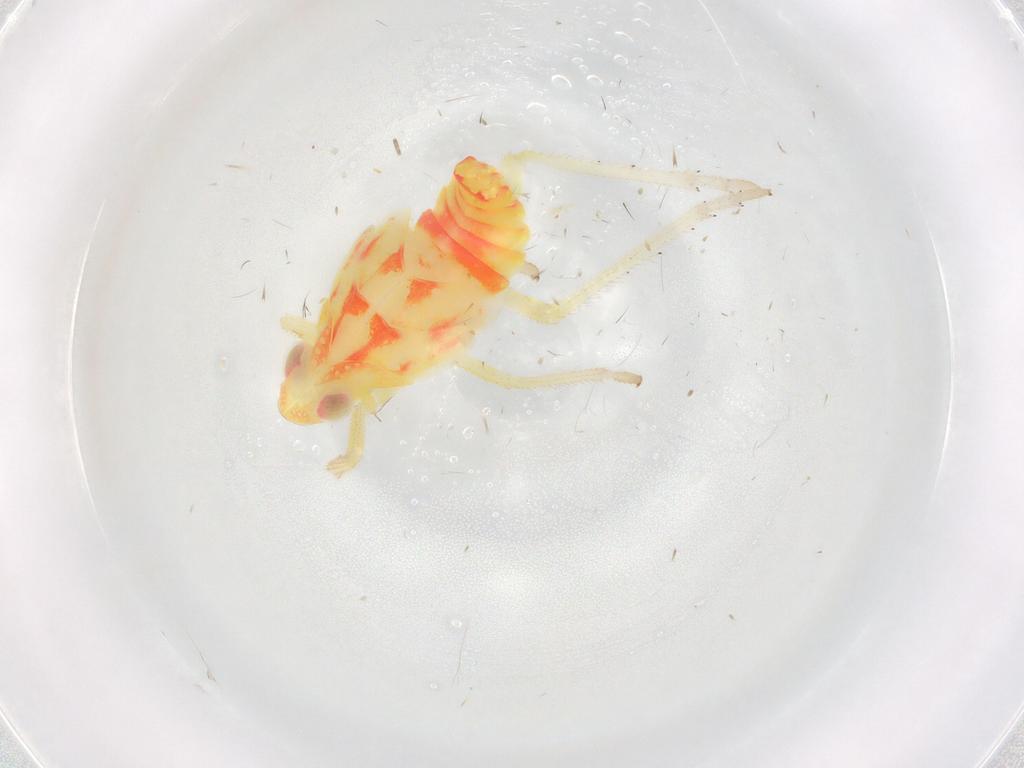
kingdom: Animalia
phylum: Arthropoda
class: Insecta
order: Hemiptera
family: Tropiduchidae
